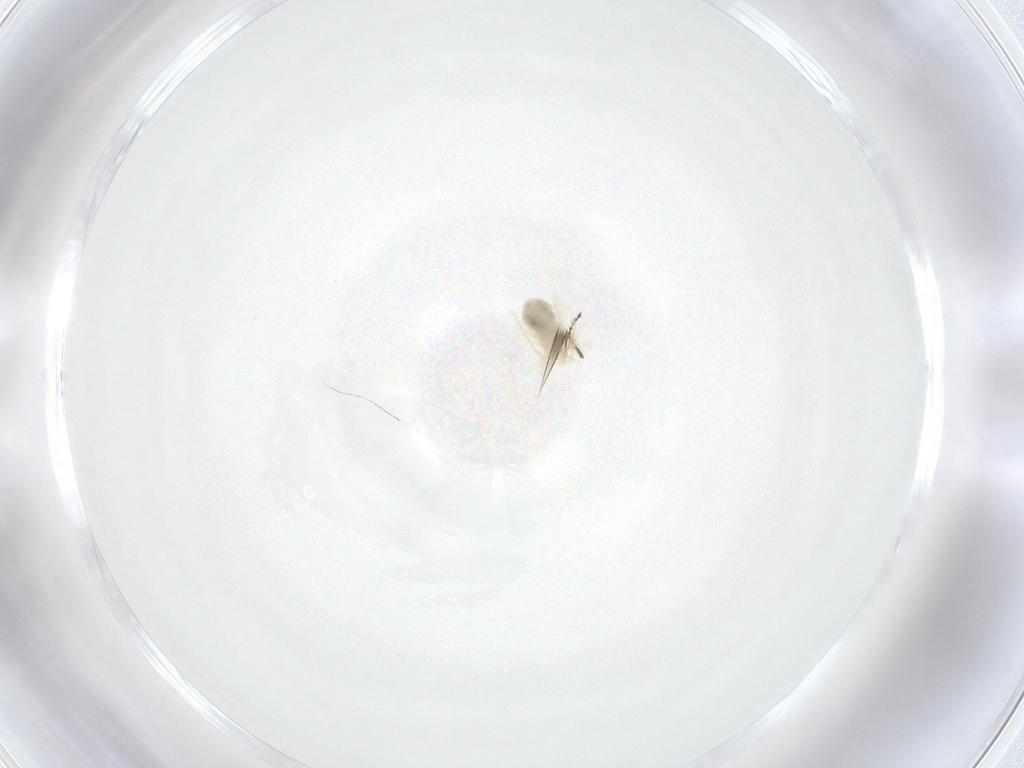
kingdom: Animalia
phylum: Arthropoda
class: Insecta
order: Diptera
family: Ceratopogonidae
